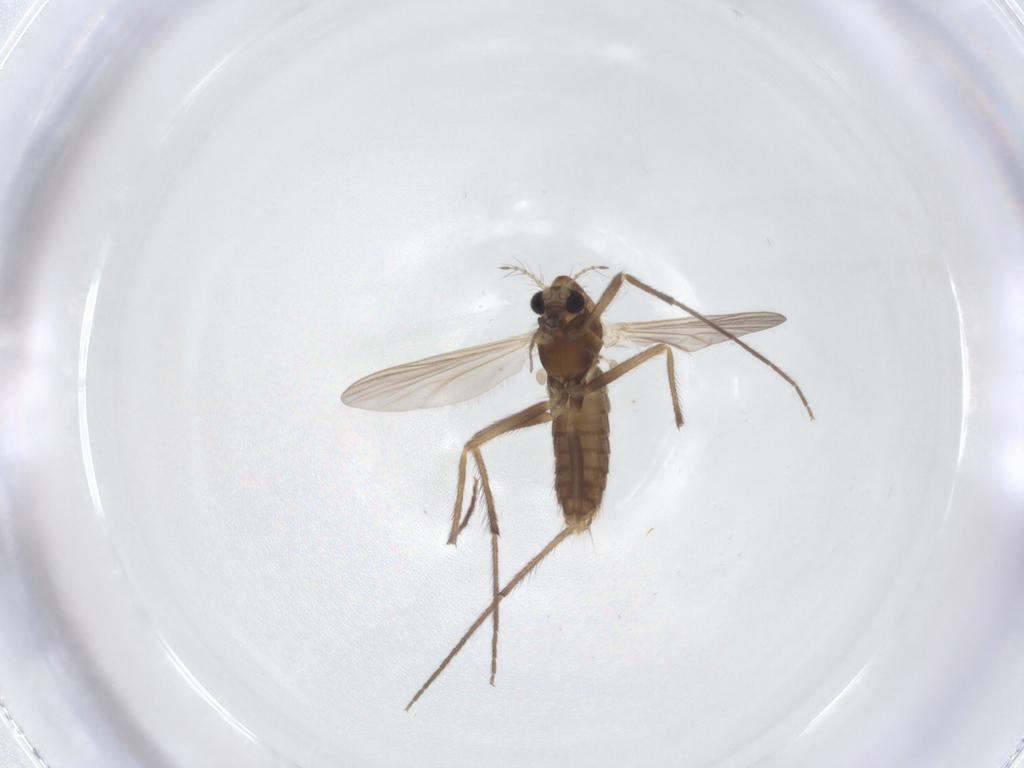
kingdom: Animalia
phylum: Arthropoda
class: Insecta
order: Diptera
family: Chironomidae
